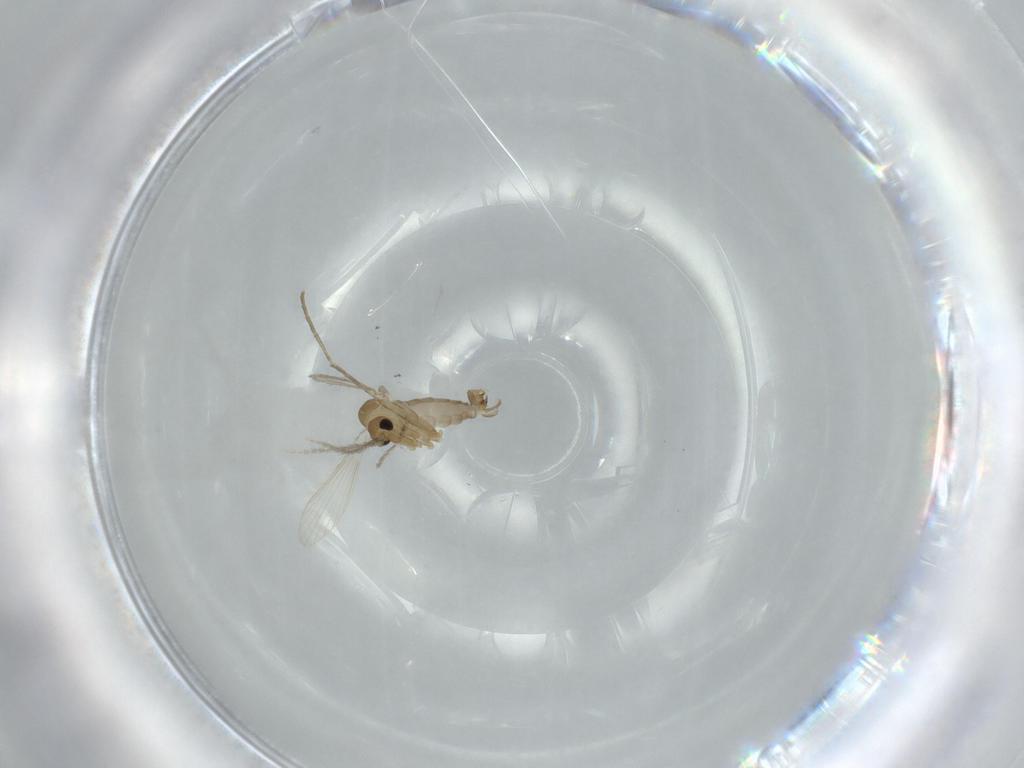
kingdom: Animalia
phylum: Arthropoda
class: Insecta
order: Diptera
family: Psychodidae
